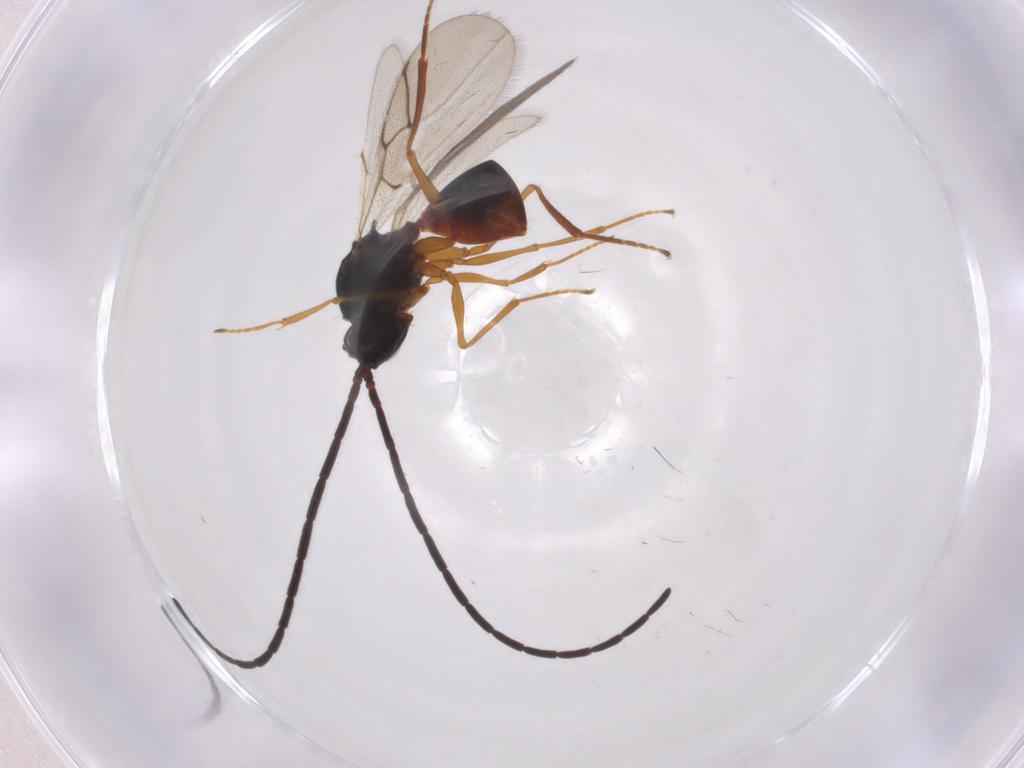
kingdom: Animalia
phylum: Arthropoda
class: Insecta
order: Hymenoptera
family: Figitidae
